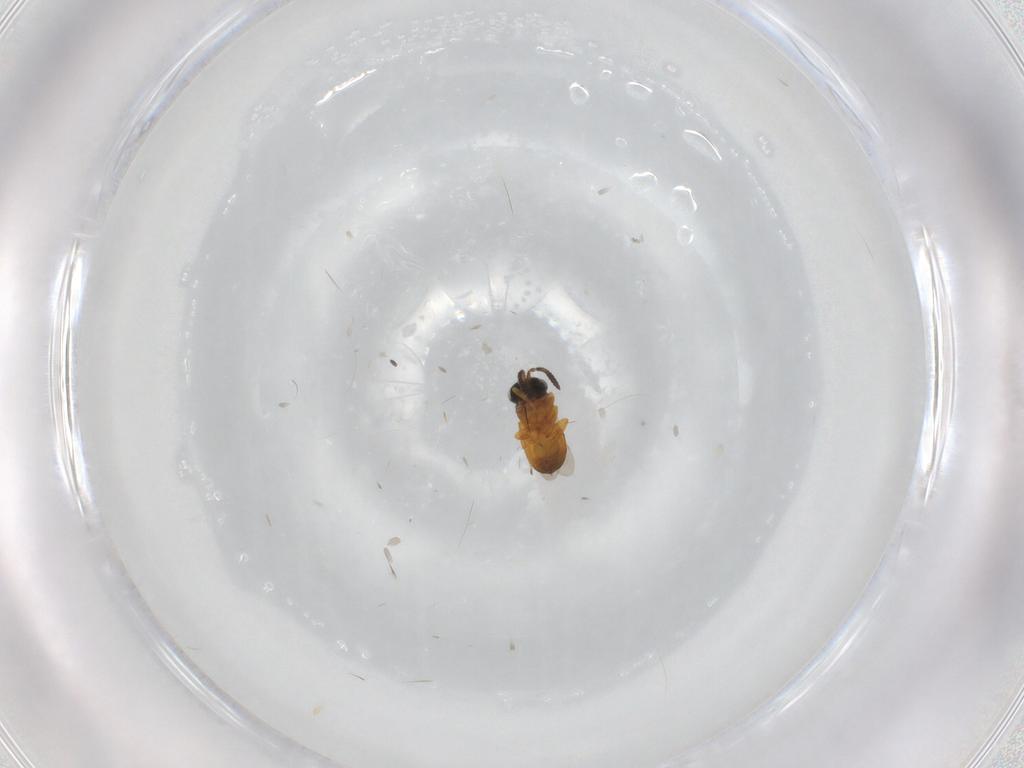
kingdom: Animalia
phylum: Arthropoda
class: Insecta
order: Hymenoptera
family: Scelionidae
